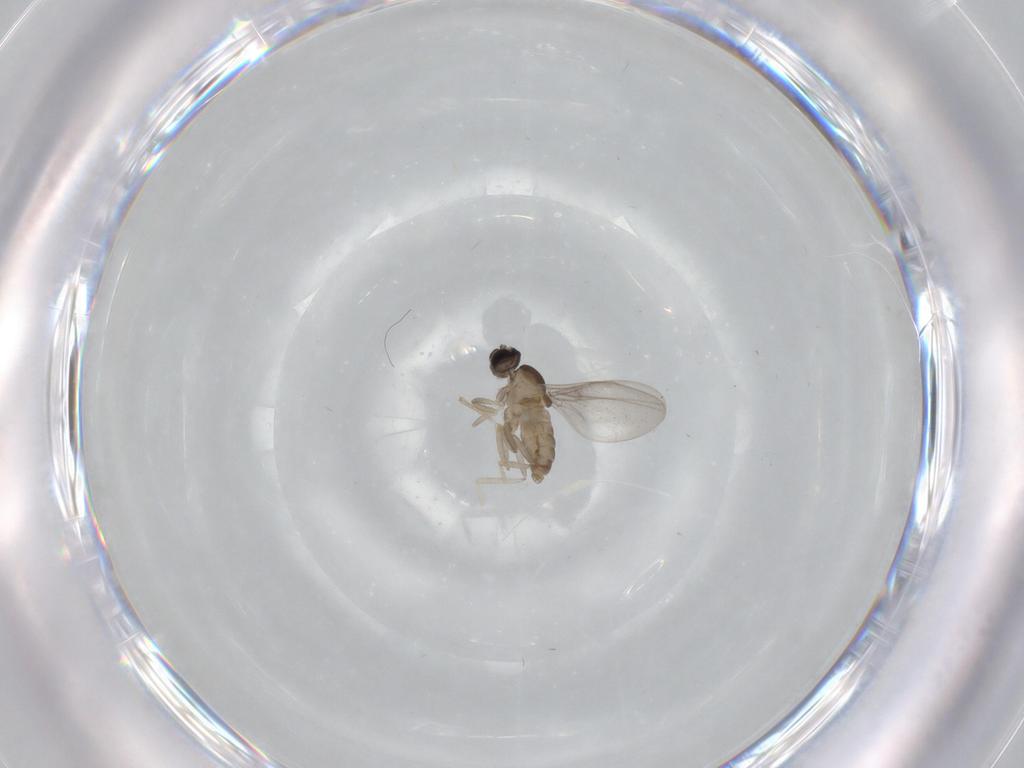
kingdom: Animalia
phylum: Arthropoda
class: Insecta
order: Diptera
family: Cecidomyiidae
